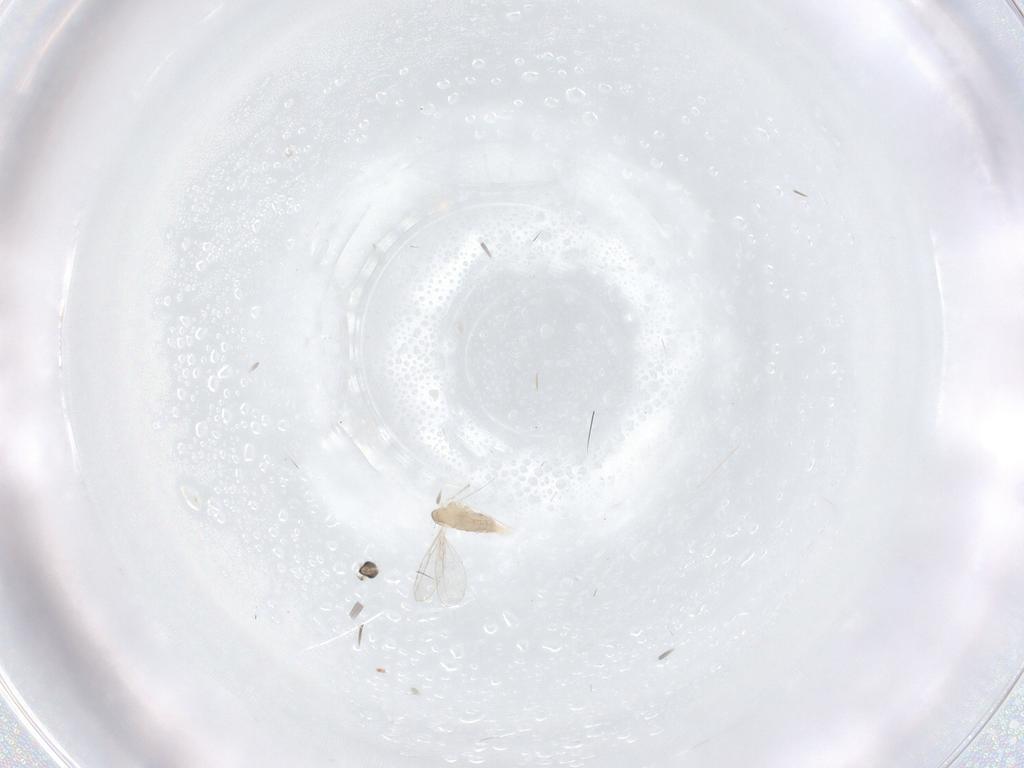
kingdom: Animalia
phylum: Arthropoda
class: Insecta
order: Diptera
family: Cecidomyiidae
